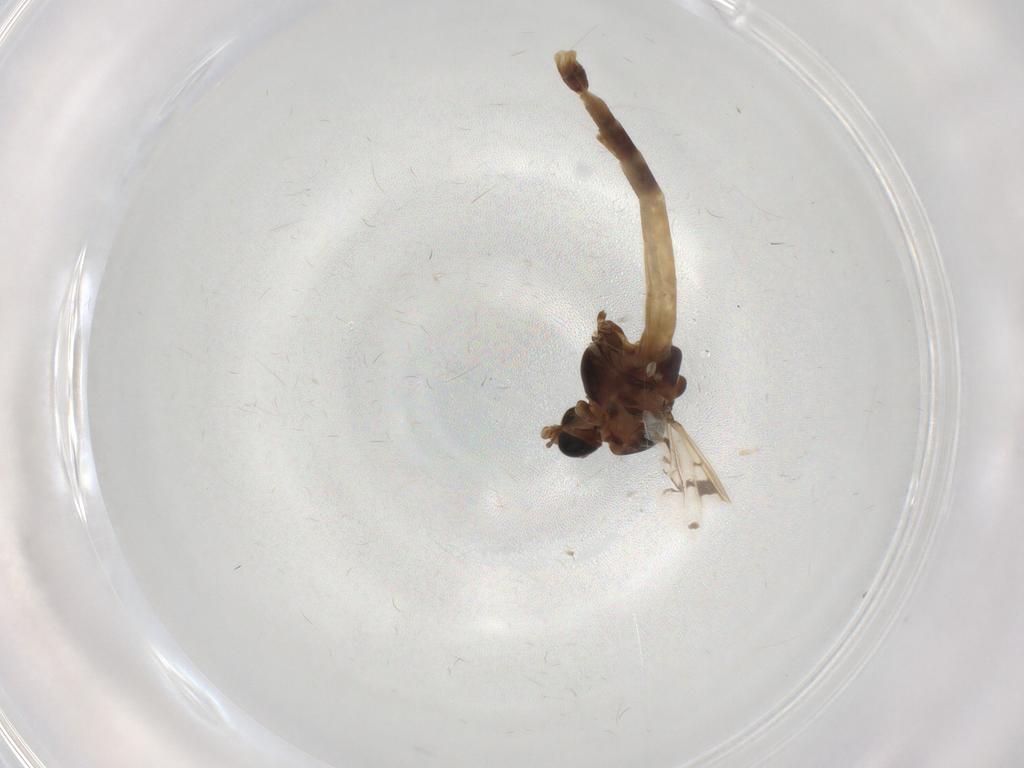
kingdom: Animalia
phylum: Arthropoda
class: Insecta
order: Diptera
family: Chironomidae
